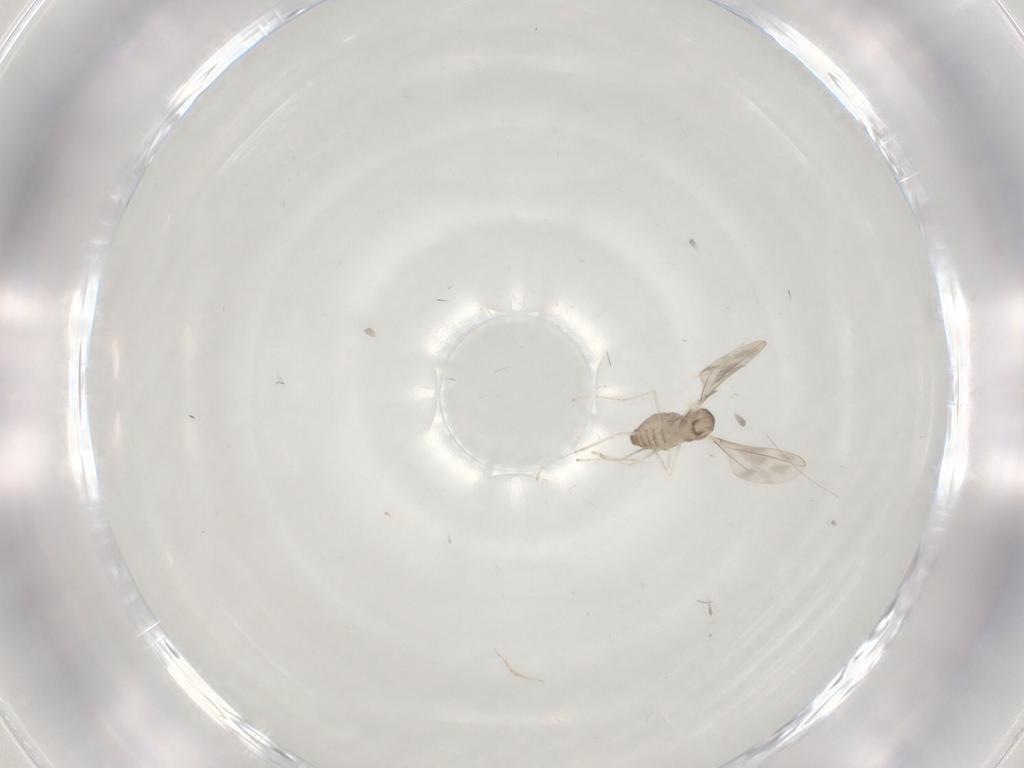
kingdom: Animalia
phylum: Arthropoda
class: Insecta
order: Diptera
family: Cecidomyiidae
